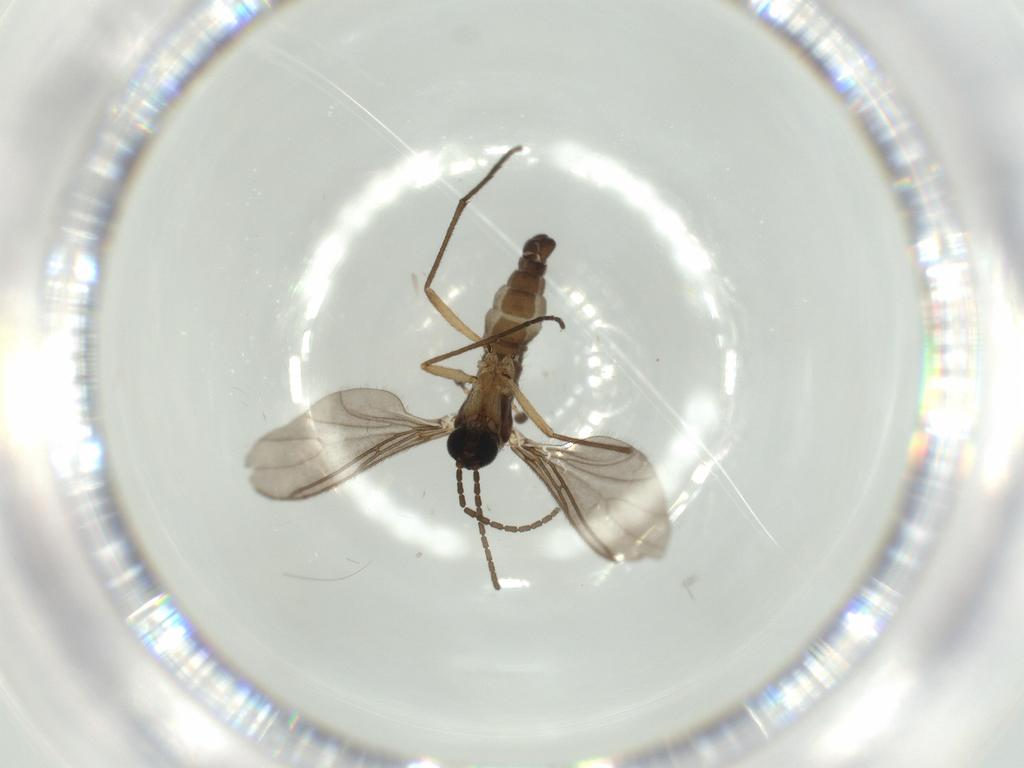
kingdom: Animalia
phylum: Arthropoda
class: Insecta
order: Diptera
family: Sciaridae
